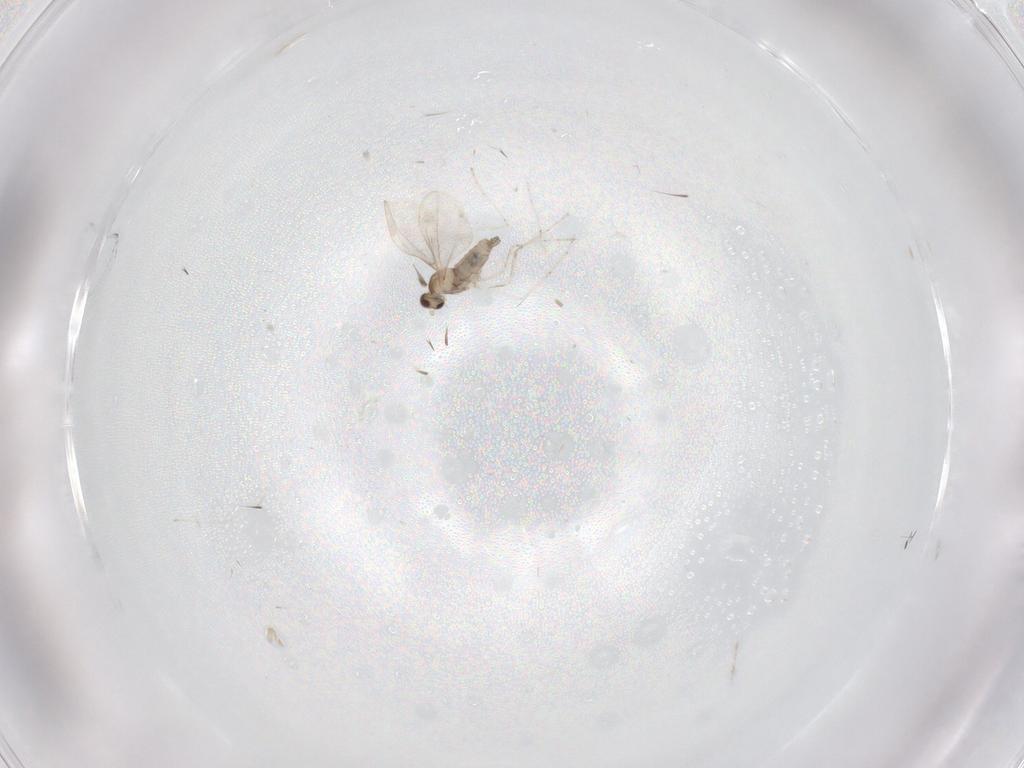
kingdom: Animalia
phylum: Arthropoda
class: Insecta
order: Diptera
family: Cecidomyiidae
